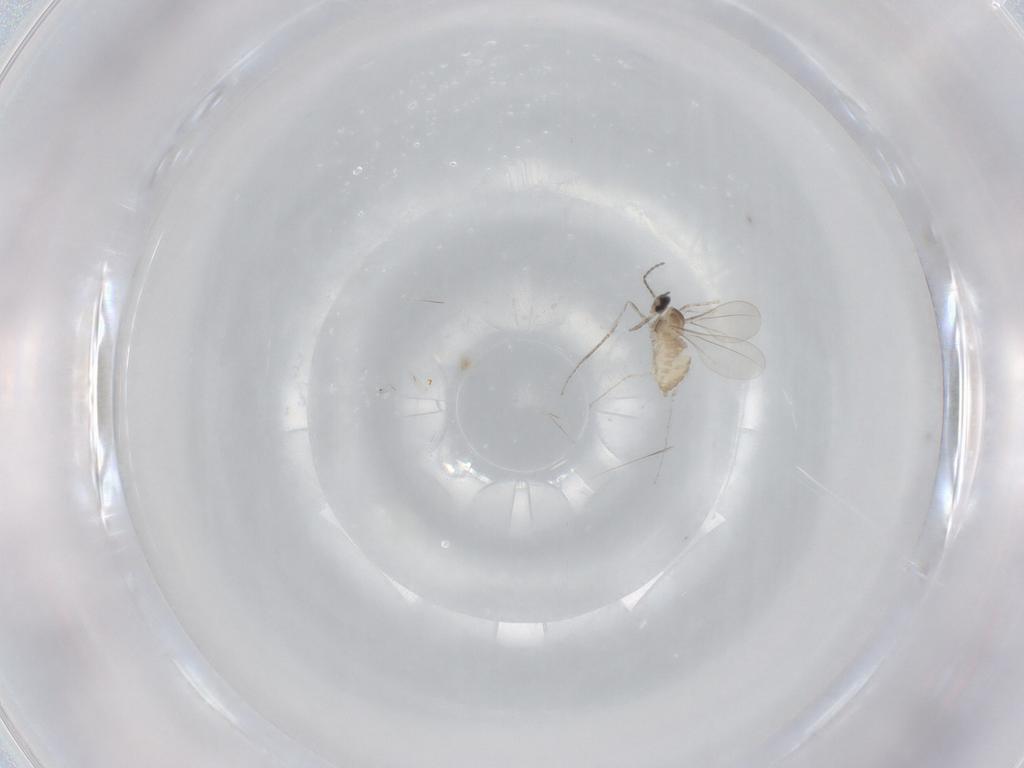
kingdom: Animalia
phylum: Arthropoda
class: Insecta
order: Diptera
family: Cecidomyiidae
